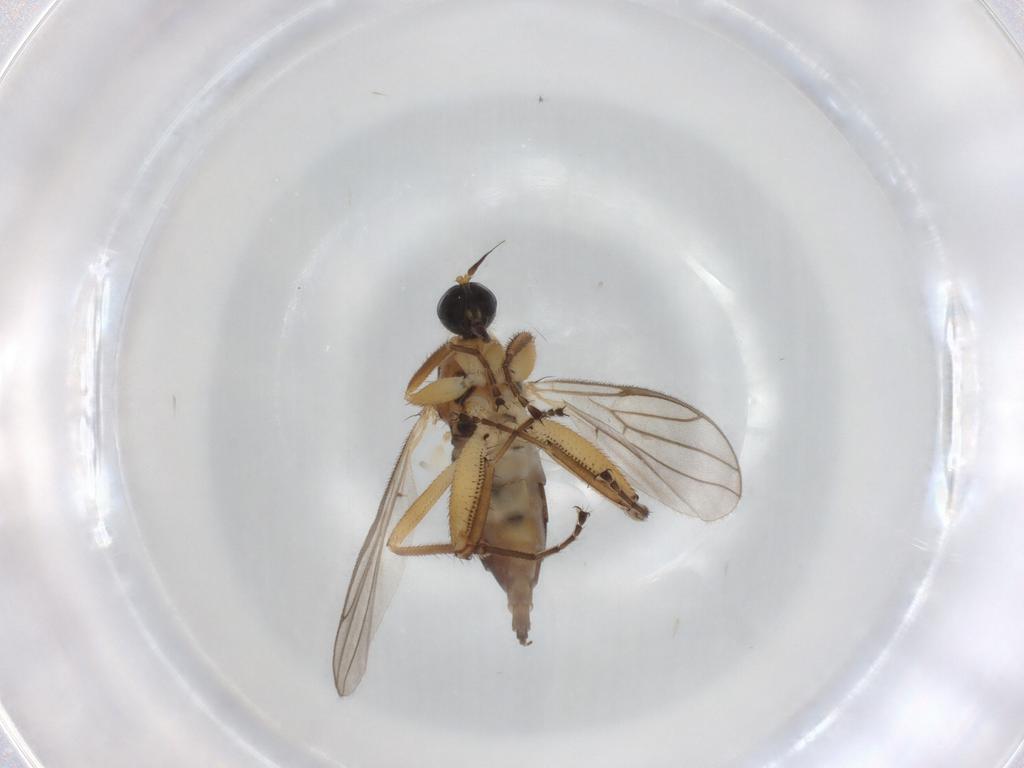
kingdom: Animalia
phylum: Arthropoda
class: Insecta
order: Diptera
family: Hybotidae
